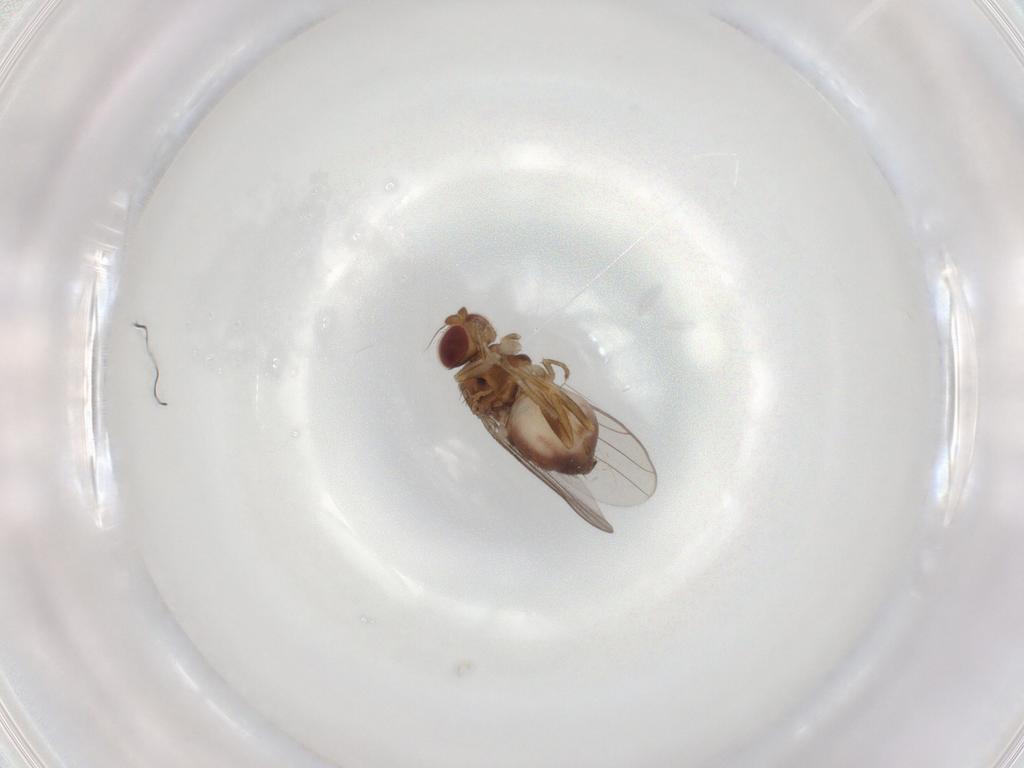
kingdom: Animalia
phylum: Arthropoda
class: Insecta
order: Diptera
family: Chloropidae
